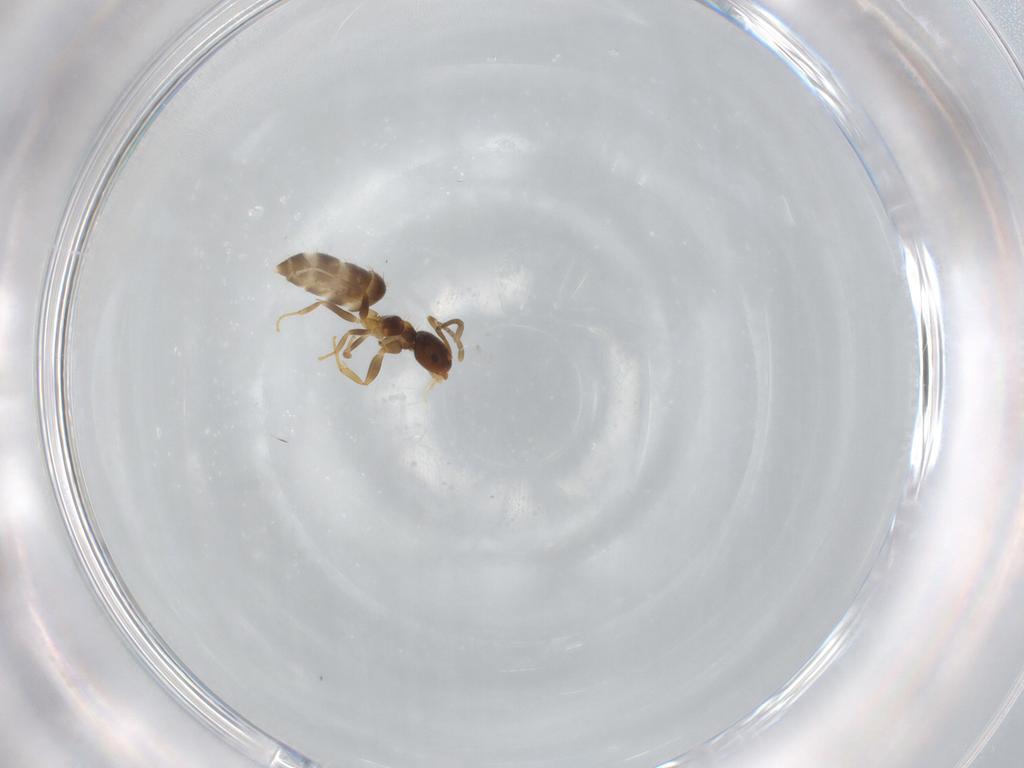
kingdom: Animalia
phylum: Arthropoda
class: Insecta
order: Hymenoptera
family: Formicidae
